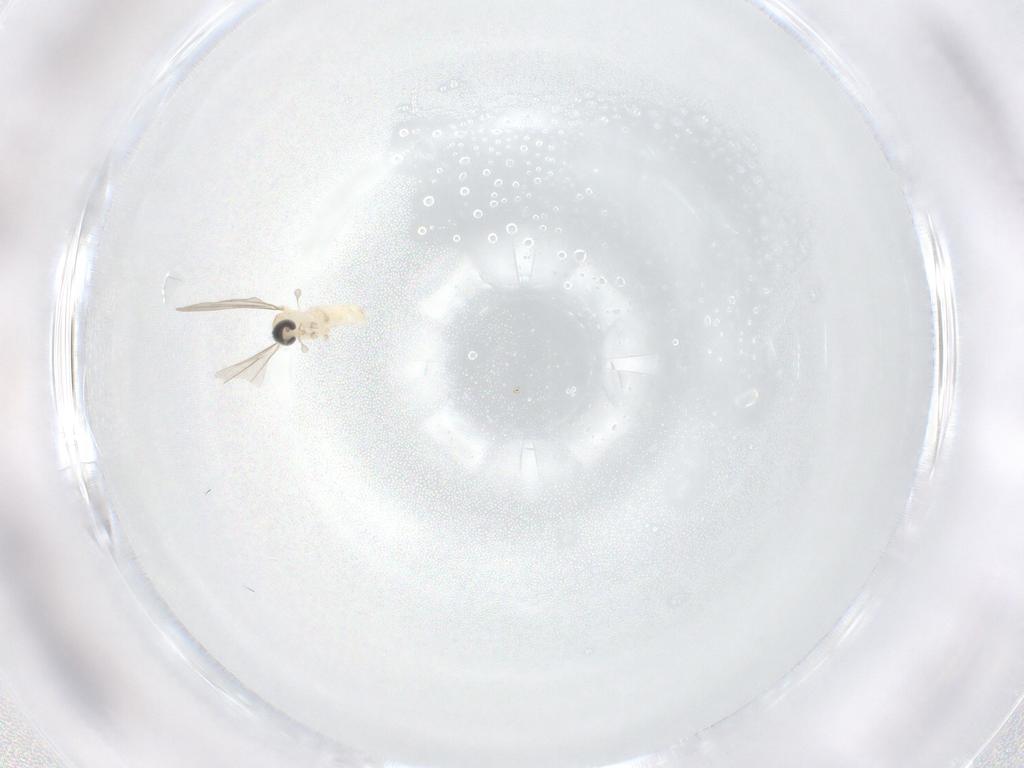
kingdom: Animalia
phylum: Arthropoda
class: Insecta
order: Diptera
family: Cecidomyiidae
